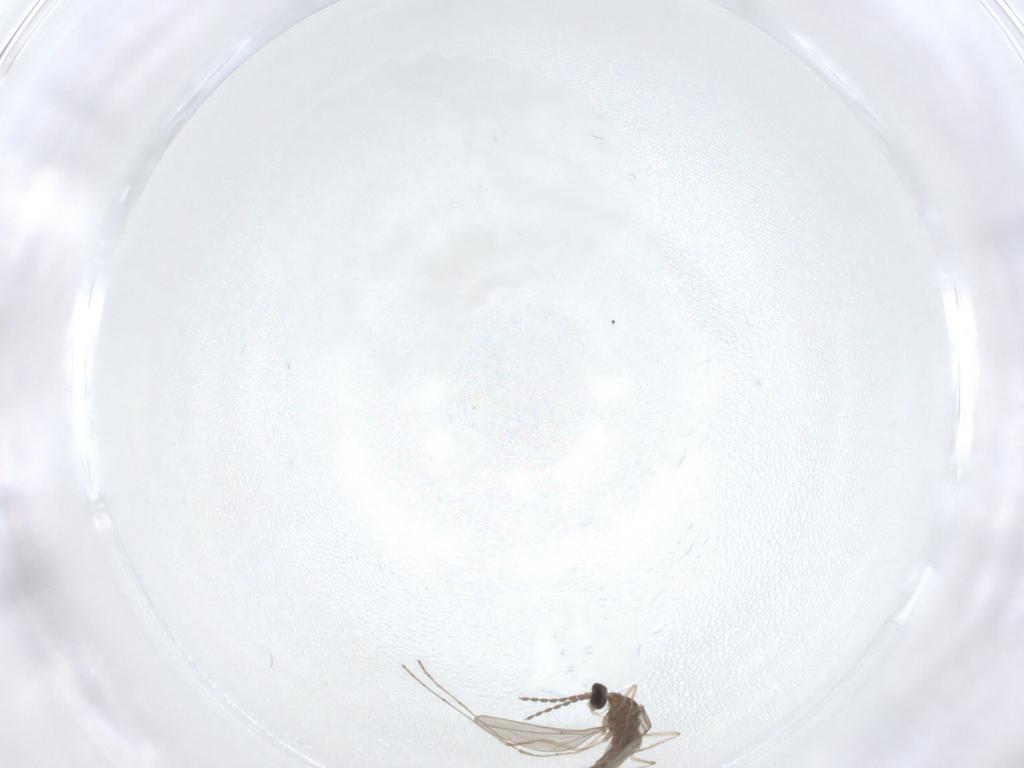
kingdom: Animalia
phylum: Arthropoda
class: Insecta
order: Diptera
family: Cecidomyiidae
